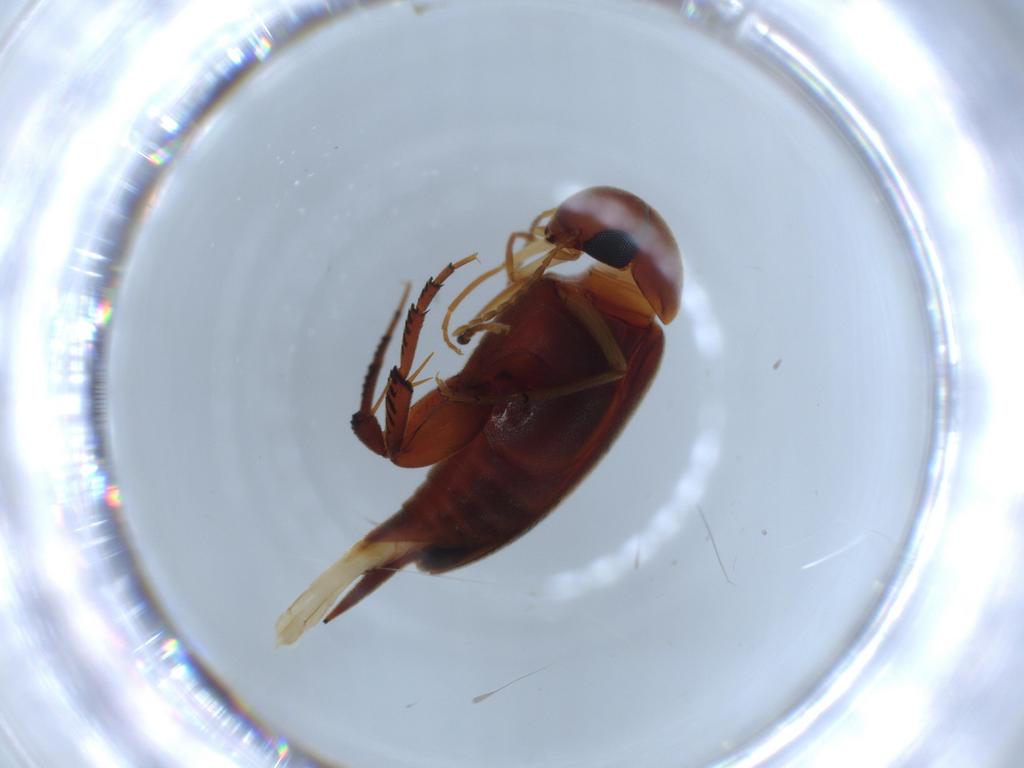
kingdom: Animalia
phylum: Arthropoda
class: Insecta
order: Coleoptera
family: Mordellidae
